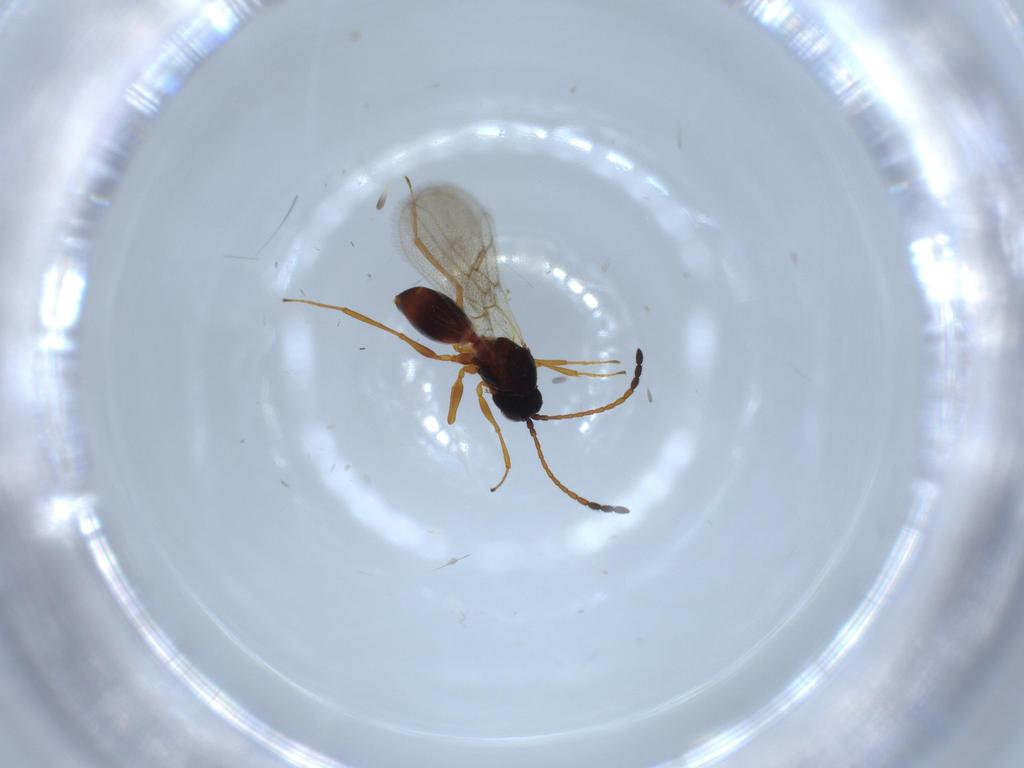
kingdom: Animalia
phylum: Arthropoda
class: Insecta
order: Hymenoptera
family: Figitidae
